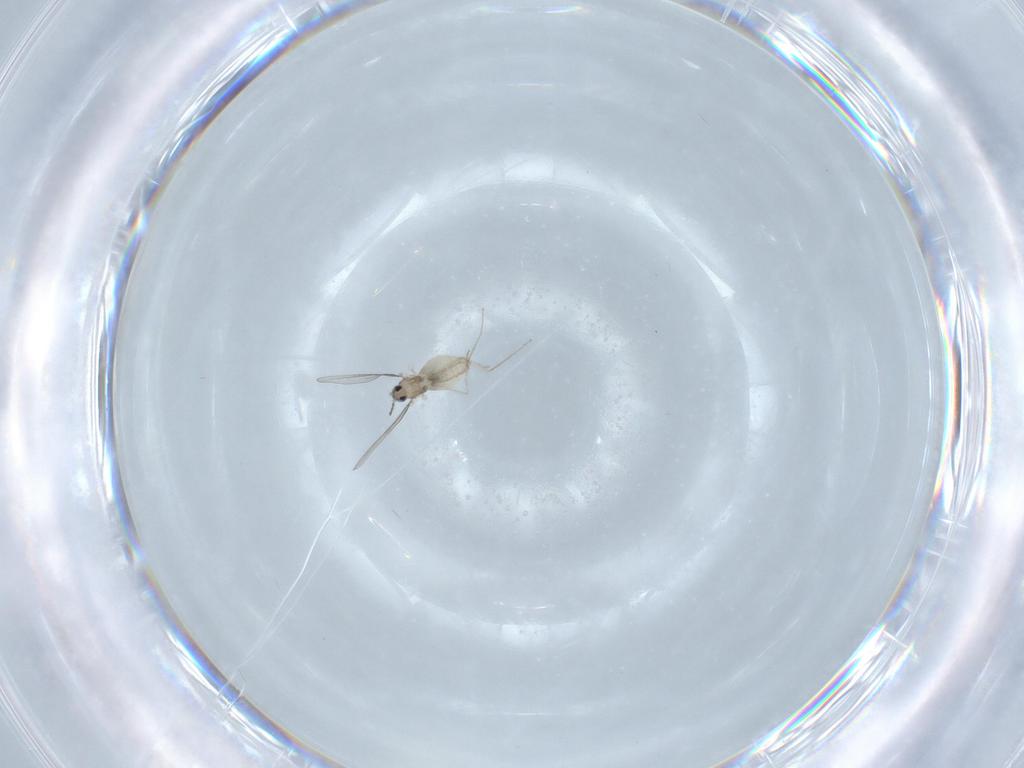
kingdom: Animalia
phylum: Arthropoda
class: Insecta
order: Diptera
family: Cecidomyiidae
